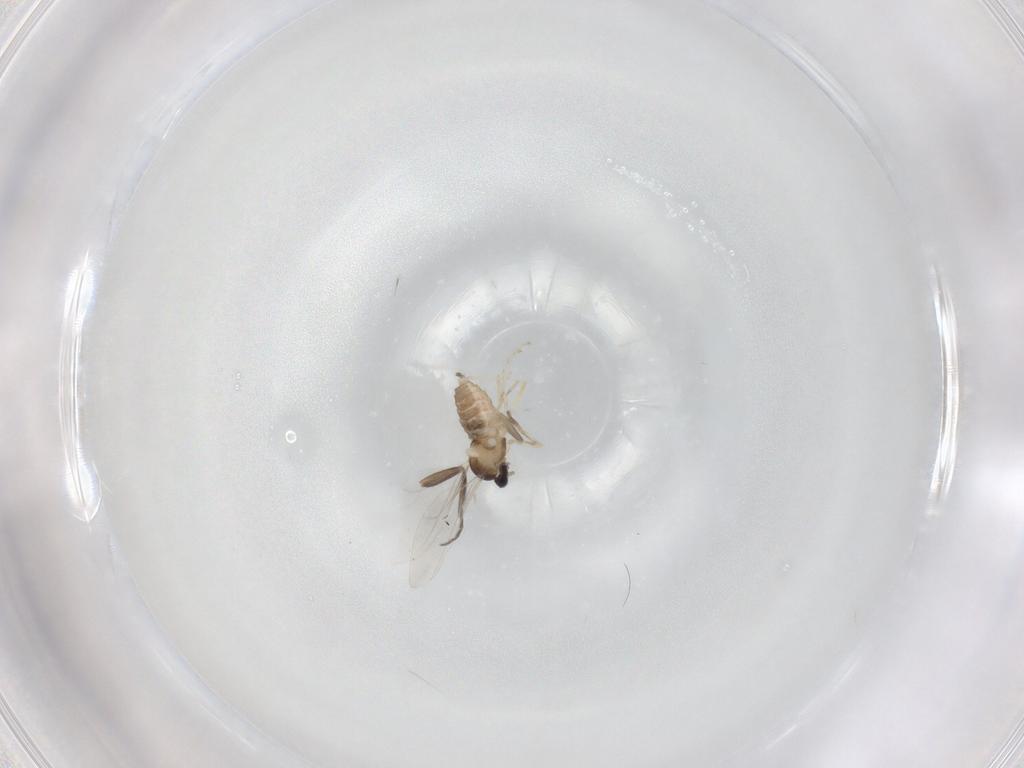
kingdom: Animalia
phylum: Arthropoda
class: Insecta
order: Diptera
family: Cecidomyiidae
